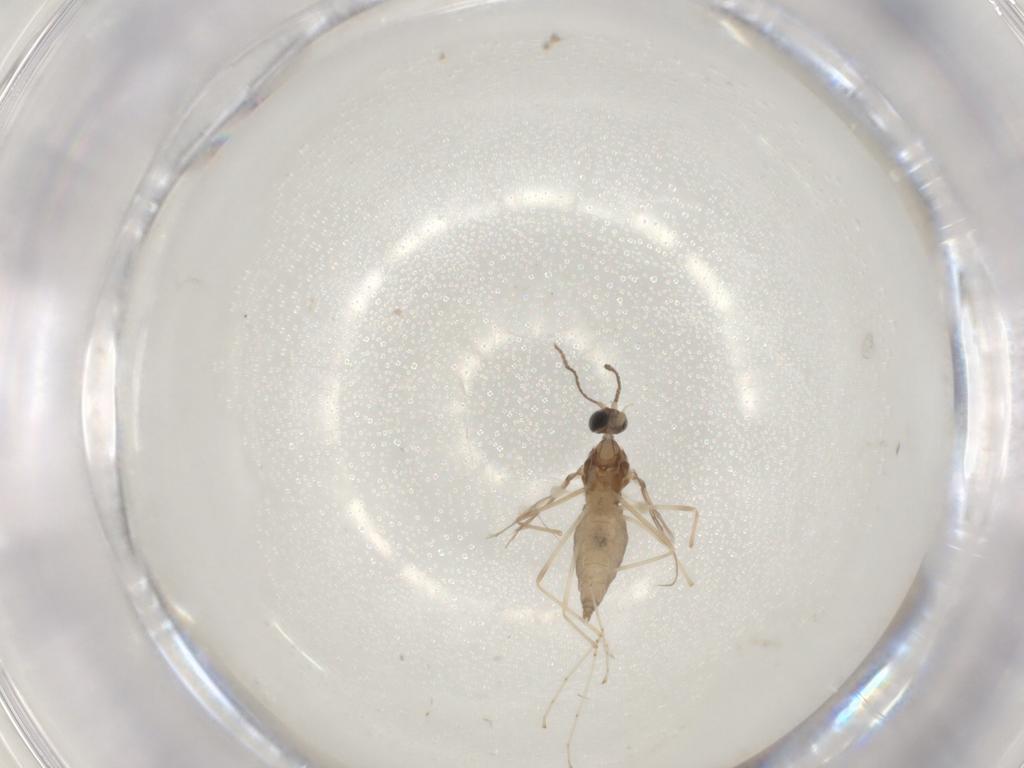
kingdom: Animalia
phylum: Arthropoda
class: Insecta
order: Diptera
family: Cecidomyiidae
